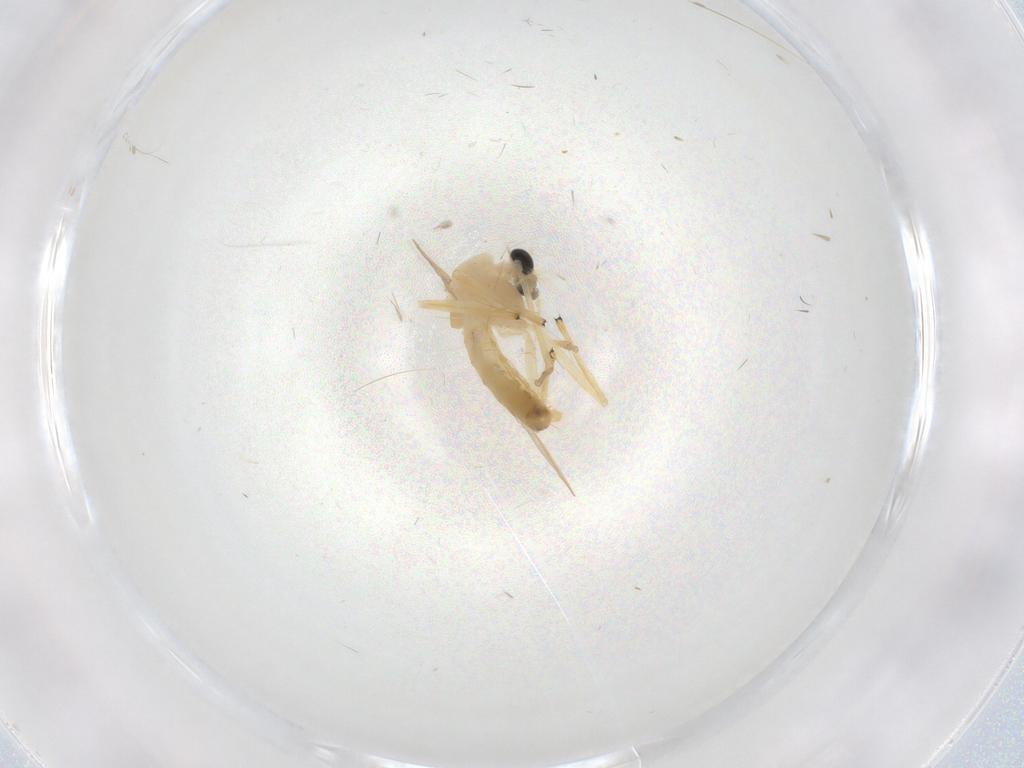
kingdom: Animalia
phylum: Arthropoda
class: Insecta
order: Diptera
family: Chironomidae
